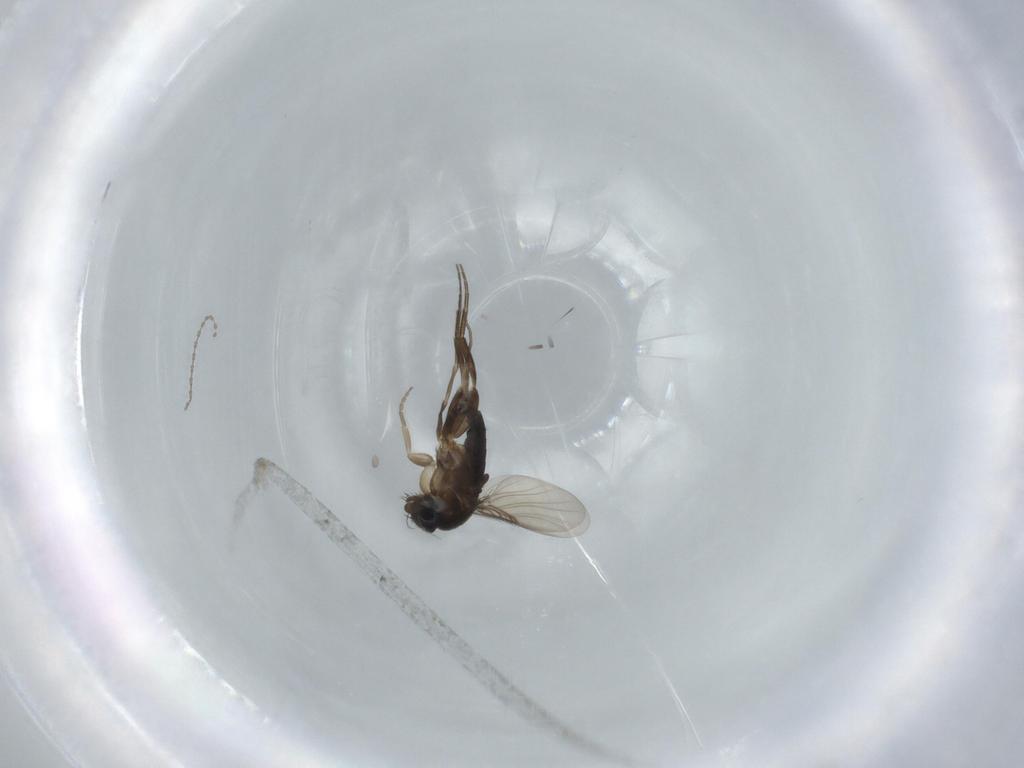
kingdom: Animalia
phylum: Arthropoda
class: Insecta
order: Diptera
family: Phoridae
